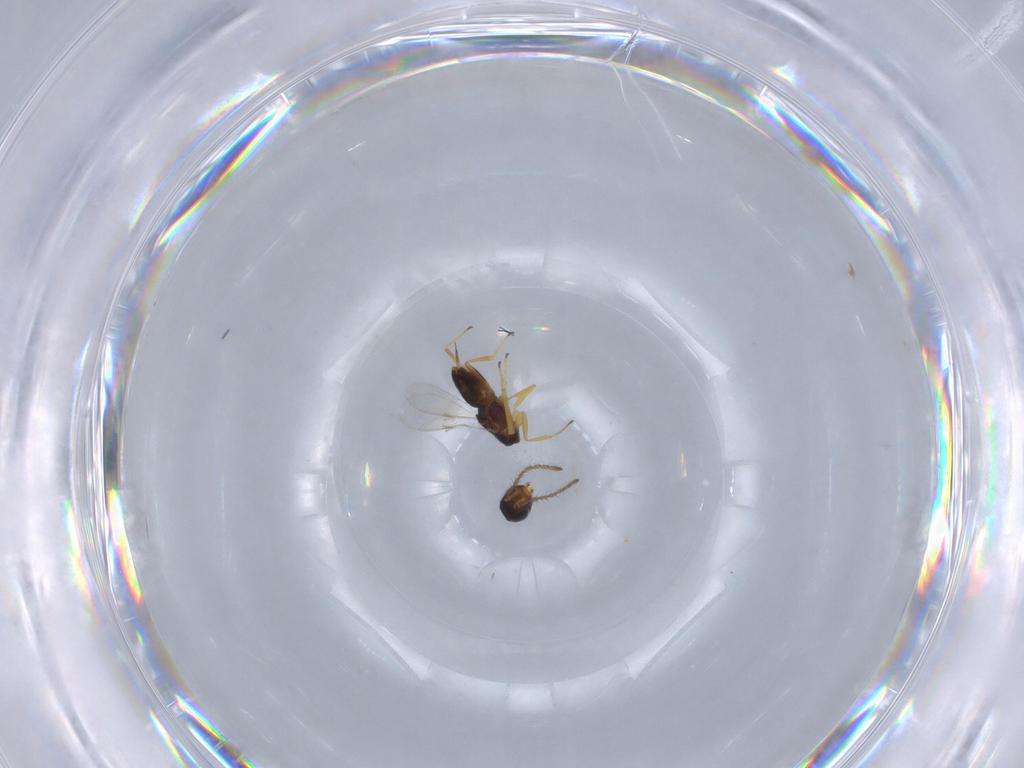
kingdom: Animalia
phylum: Arthropoda
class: Insecta
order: Hymenoptera
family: Encyrtidae
